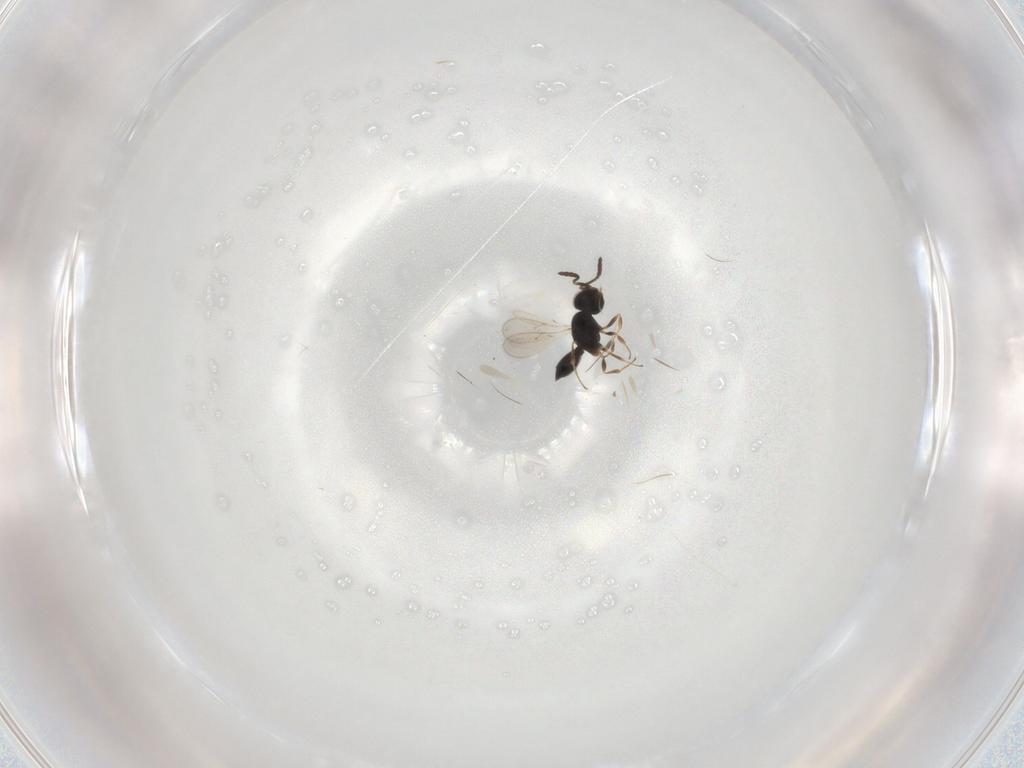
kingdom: Animalia
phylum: Arthropoda
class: Insecta
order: Hymenoptera
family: Scelionidae
